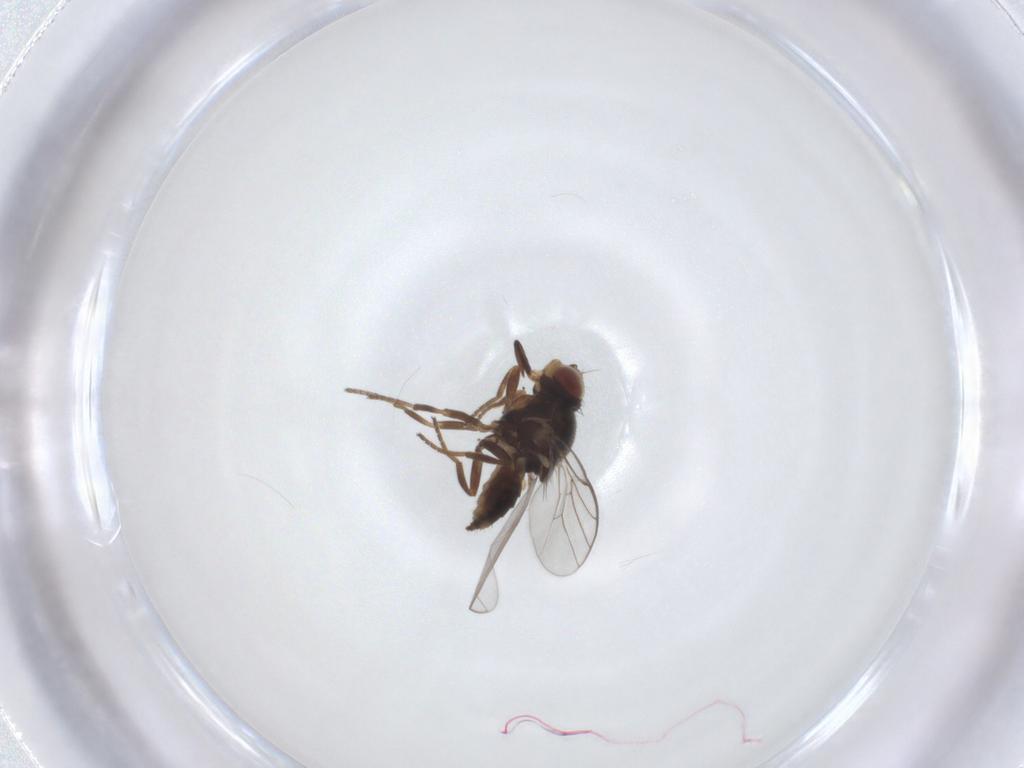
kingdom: Animalia
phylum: Arthropoda
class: Insecta
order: Diptera
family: Chloropidae
